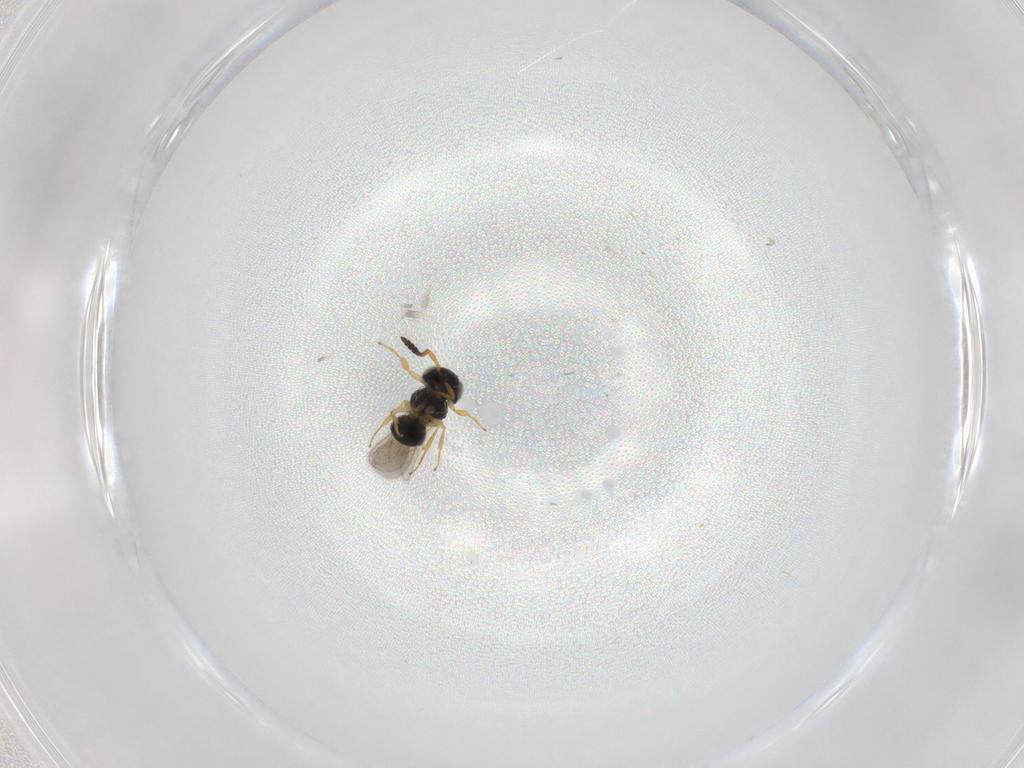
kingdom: Animalia
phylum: Arthropoda
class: Insecta
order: Hymenoptera
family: Scelionidae
